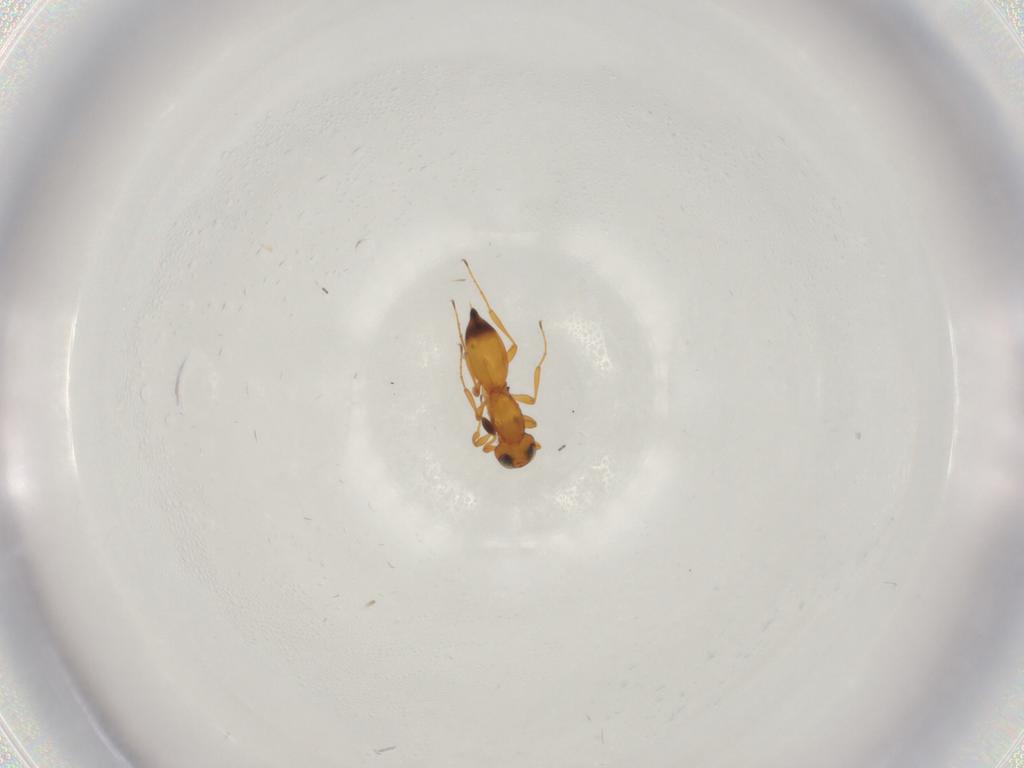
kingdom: Animalia
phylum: Arthropoda
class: Insecta
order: Hymenoptera
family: Platygastridae
